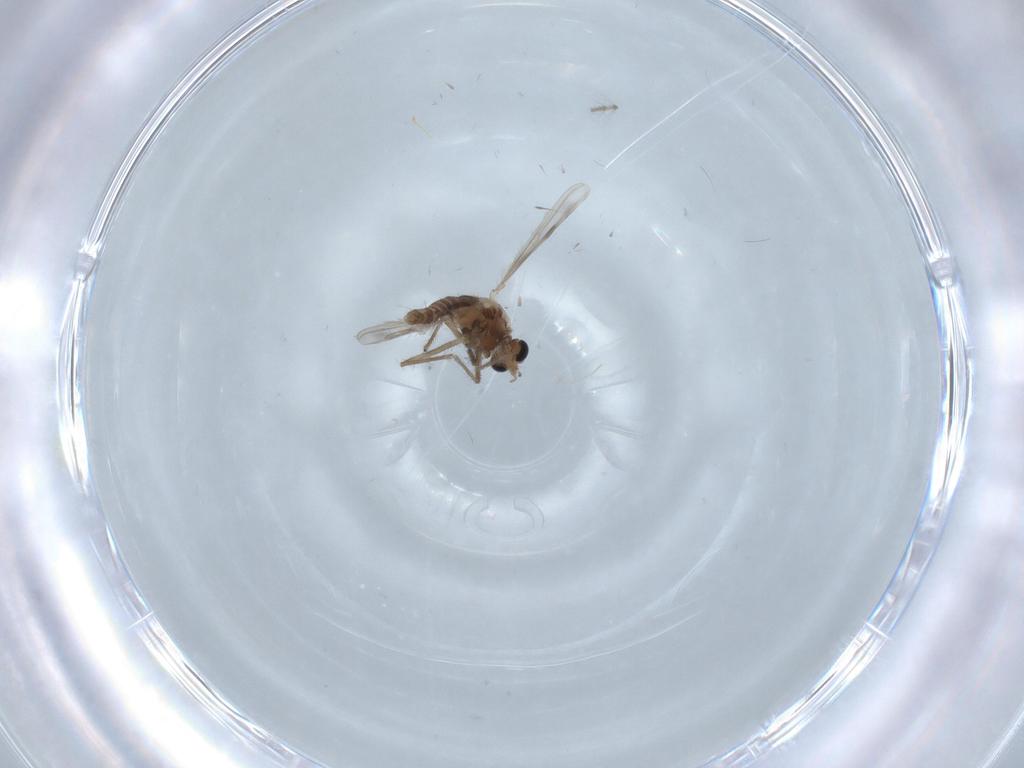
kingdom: Animalia
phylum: Arthropoda
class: Insecta
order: Diptera
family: Chironomidae
